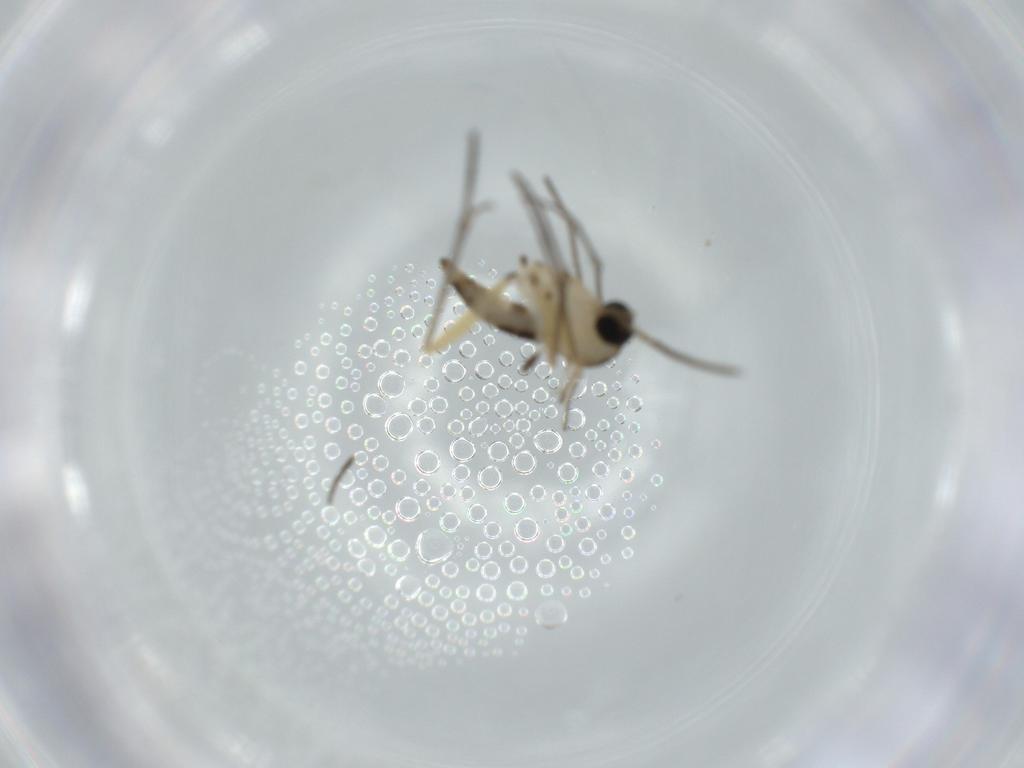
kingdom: Animalia
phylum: Arthropoda
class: Insecta
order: Diptera
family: Sciaridae
